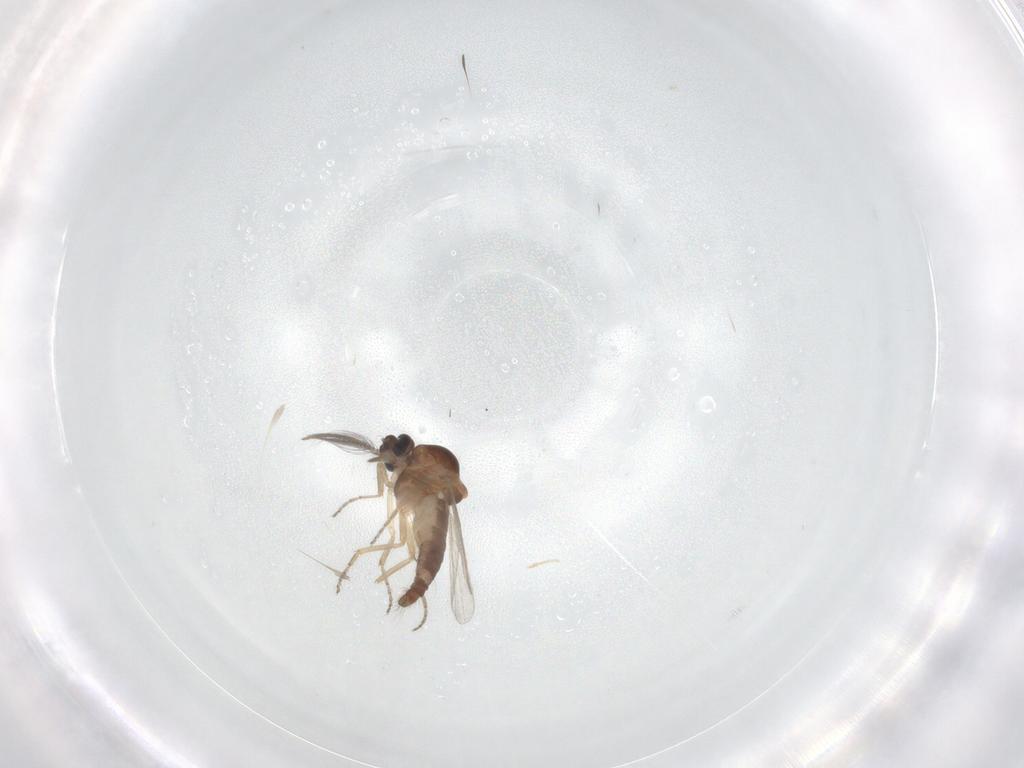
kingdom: Animalia
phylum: Arthropoda
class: Insecta
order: Diptera
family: Ceratopogonidae
